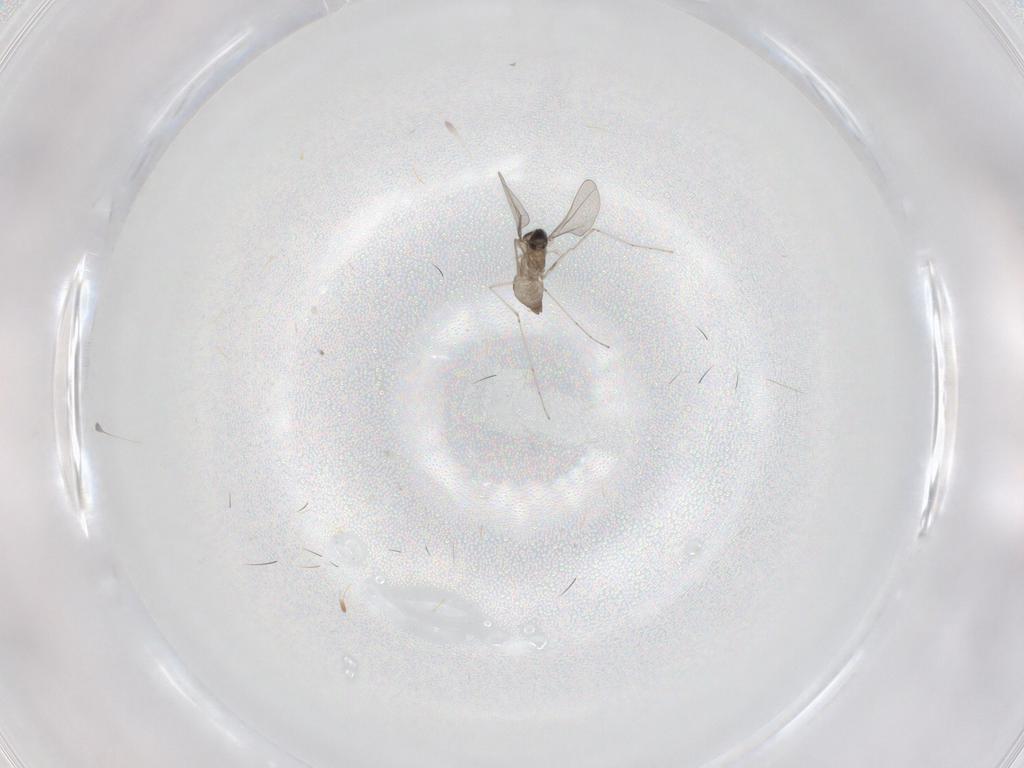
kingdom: Animalia
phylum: Arthropoda
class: Insecta
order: Diptera
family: Cecidomyiidae
